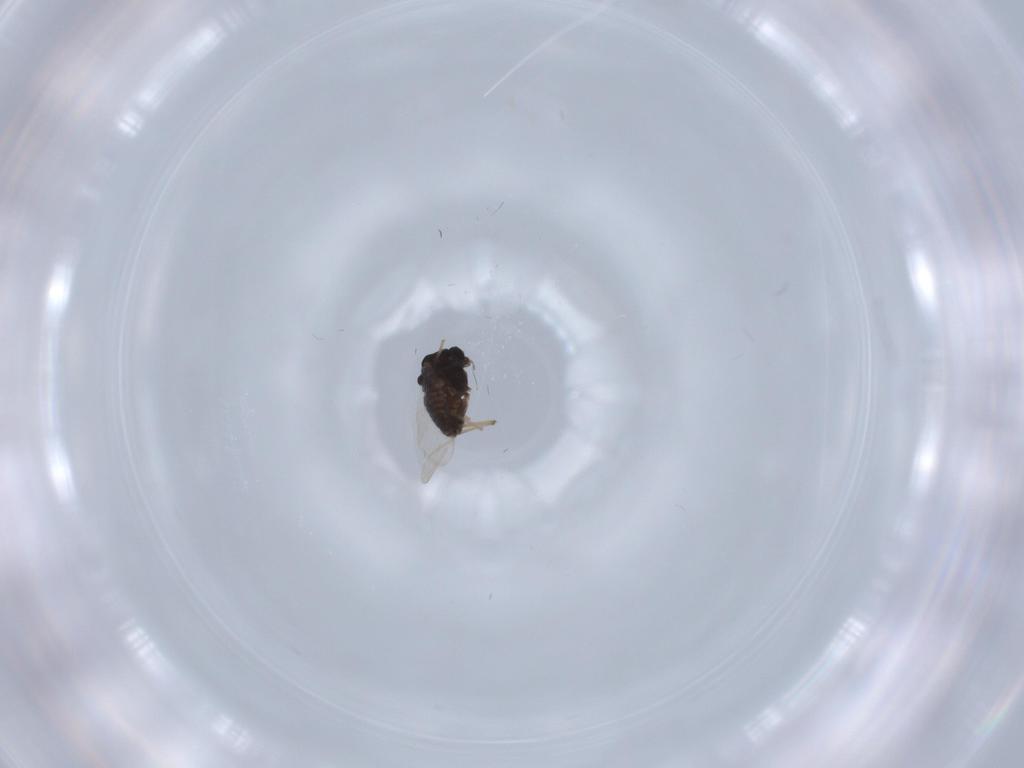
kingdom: Animalia
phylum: Arthropoda
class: Insecta
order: Diptera
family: Chironomidae
